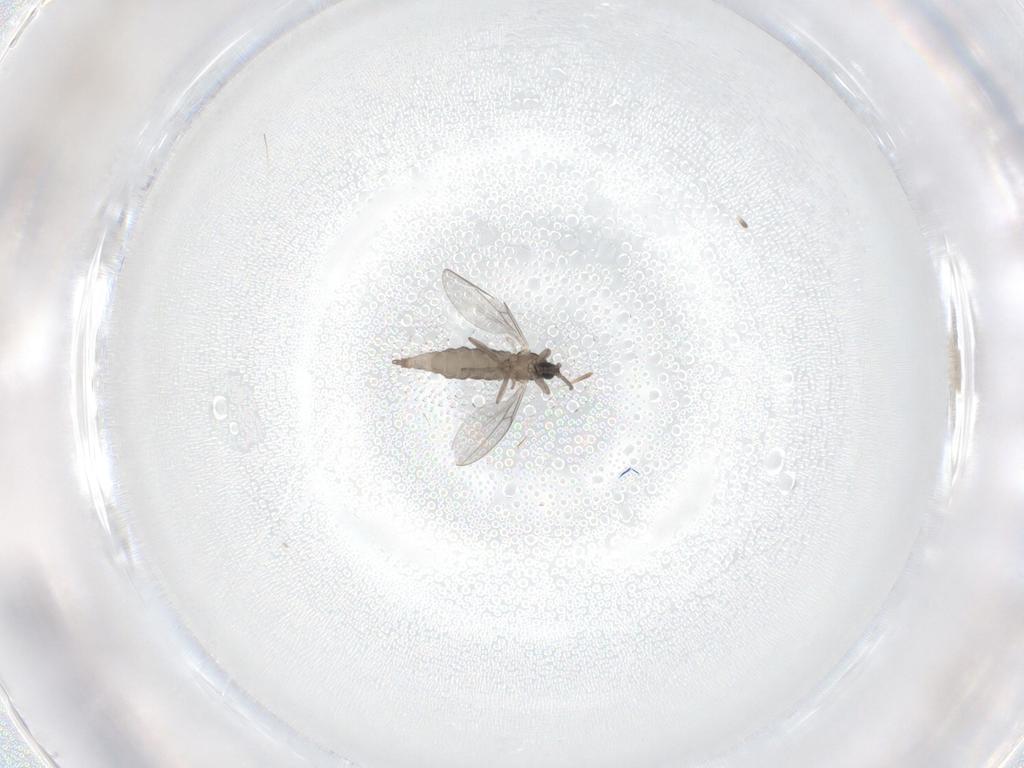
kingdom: Animalia
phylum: Arthropoda
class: Insecta
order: Diptera
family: Cecidomyiidae
